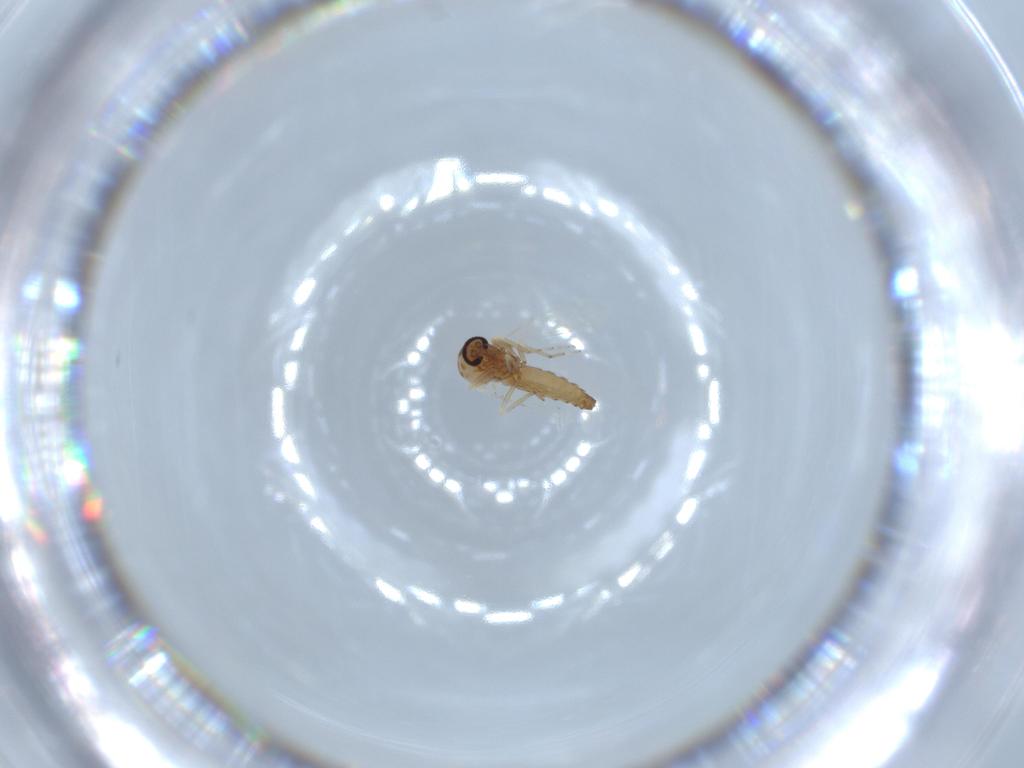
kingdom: Animalia
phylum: Arthropoda
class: Insecta
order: Diptera
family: Ceratopogonidae
